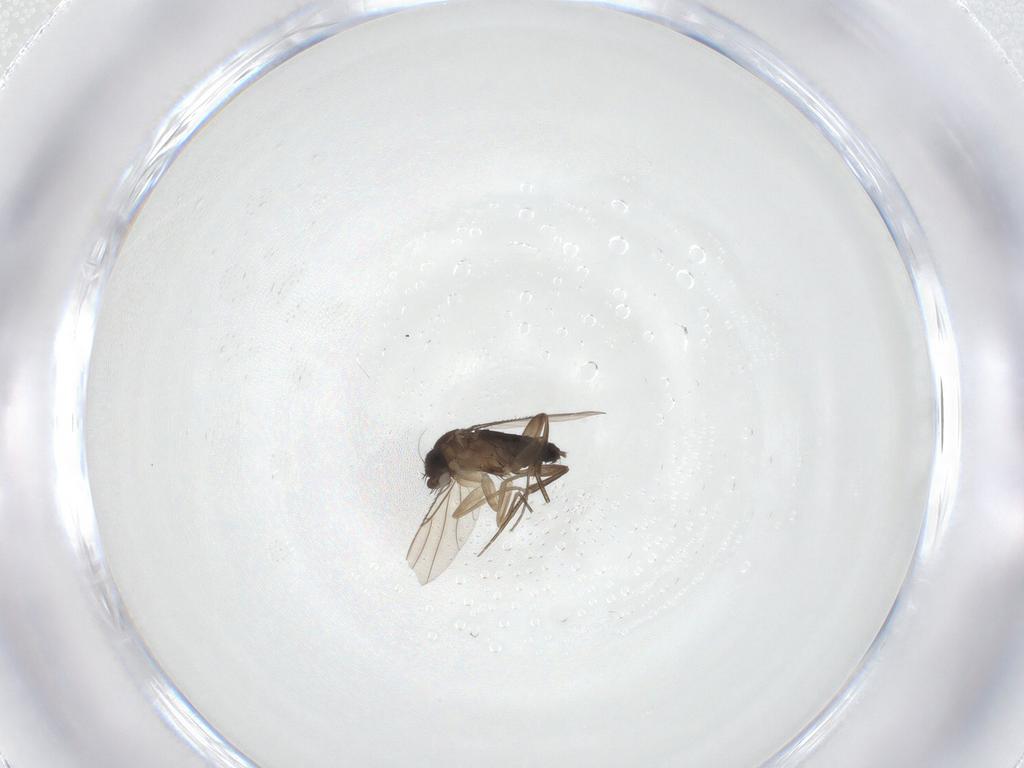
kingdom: Animalia
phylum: Arthropoda
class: Insecta
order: Diptera
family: Phoridae
